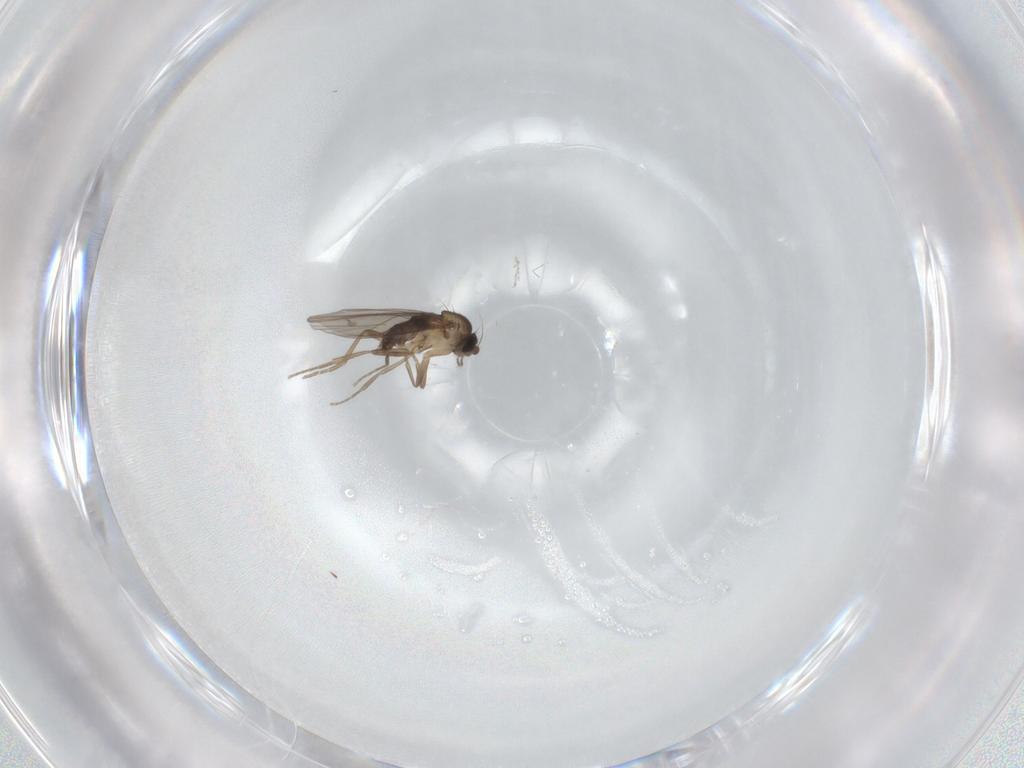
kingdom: Animalia
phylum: Arthropoda
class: Insecta
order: Diptera
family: Phoridae
